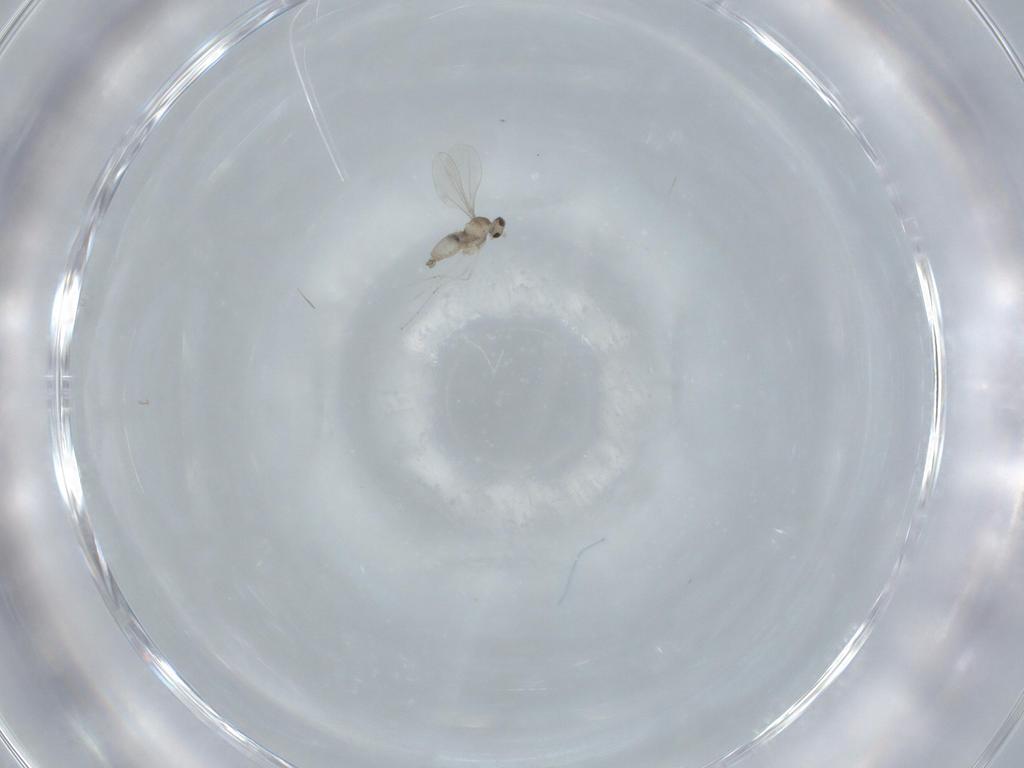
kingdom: Animalia
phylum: Arthropoda
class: Insecta
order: Diptera
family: Cecidomyiidae
